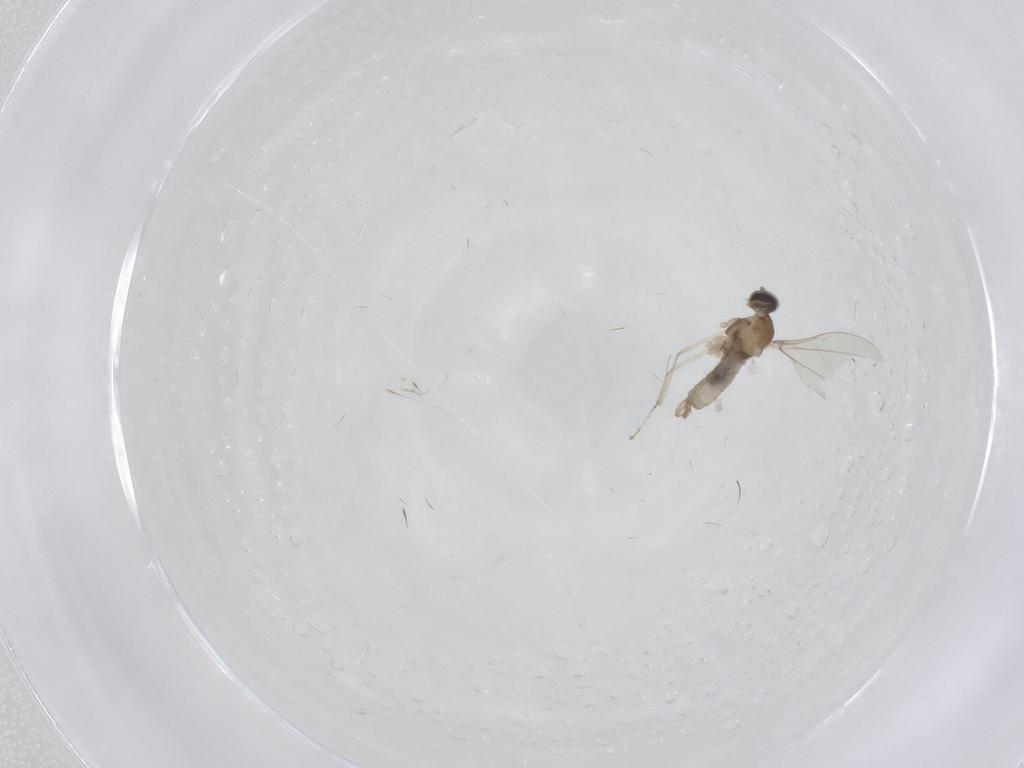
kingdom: Animalia
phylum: Arthropoda
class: Insecta
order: Diptera
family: Cecidomyiidae
